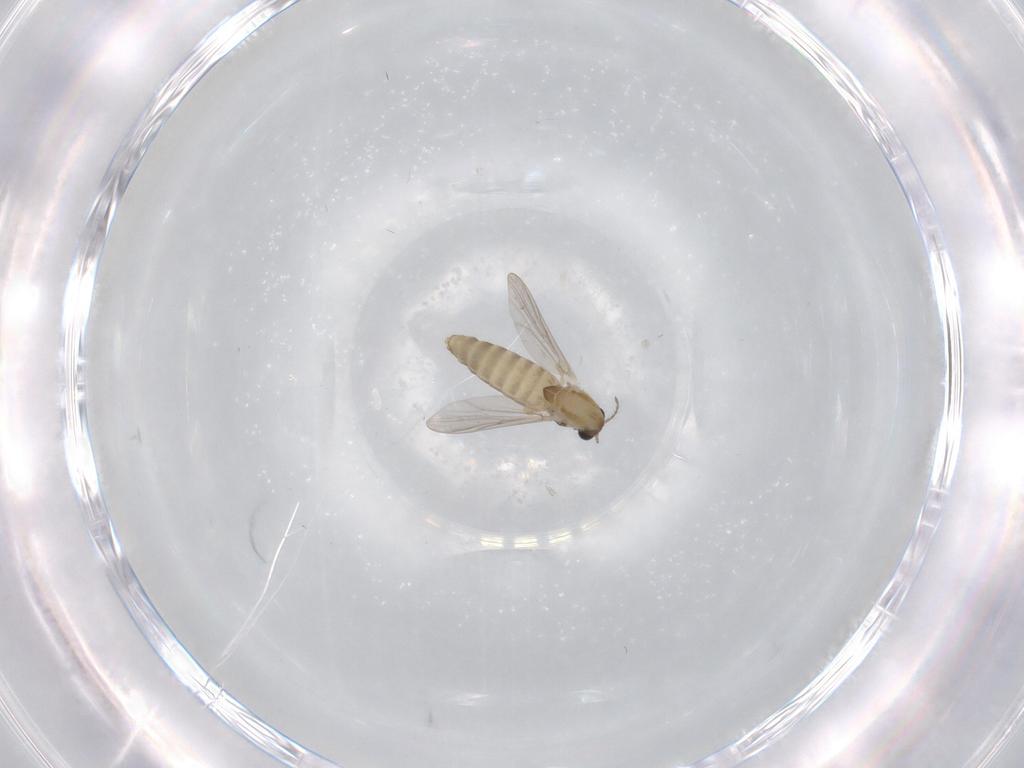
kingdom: Animalia
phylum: Arthropoda
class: Insecta
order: Diptera
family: Chironomidae
